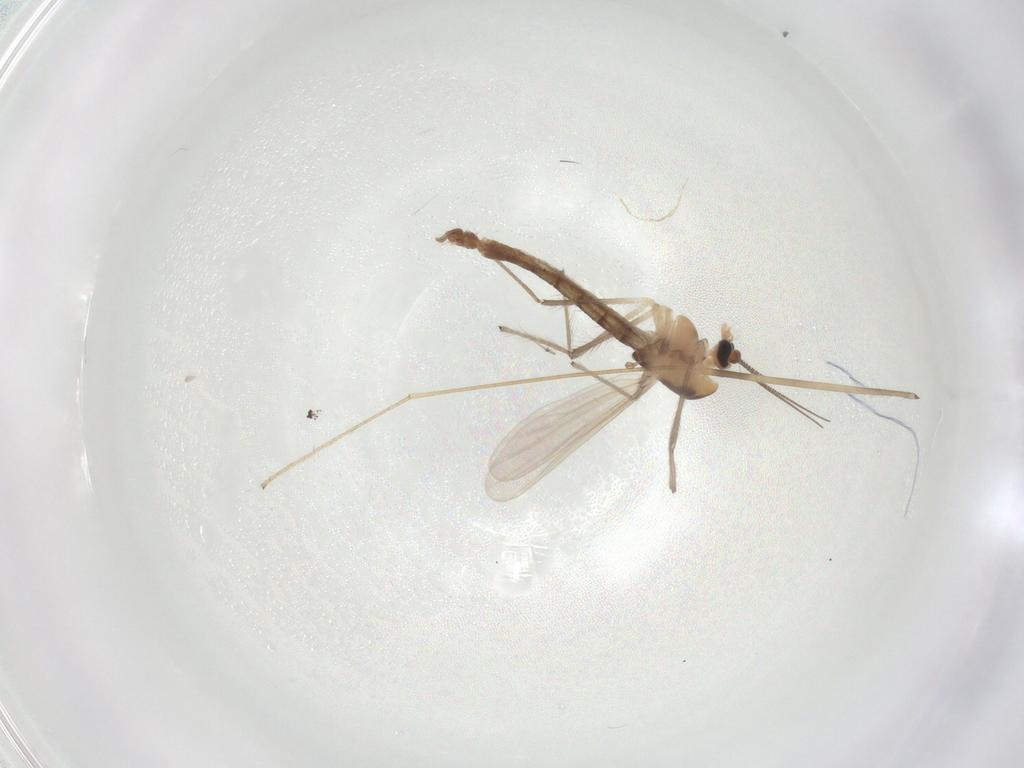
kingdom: Animalia
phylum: Arthropoda
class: Insecta
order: Diptera
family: Chironomidae
